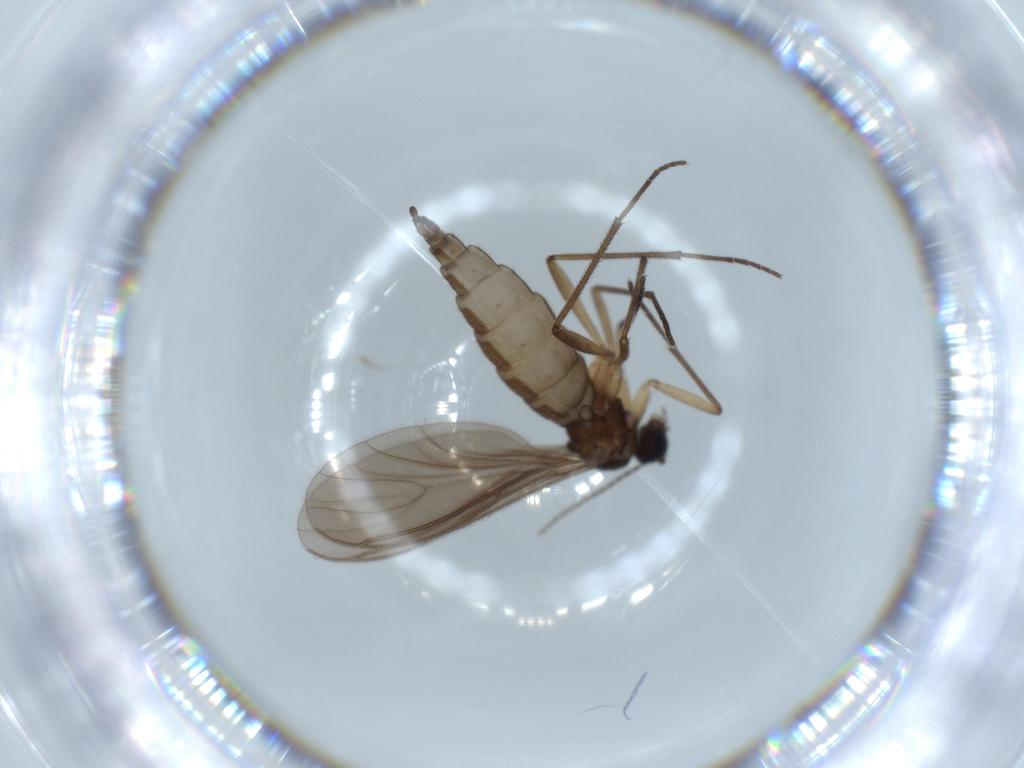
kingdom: Animalia
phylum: Arthropoda
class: Insecta
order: Diptera
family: Sciaridae
